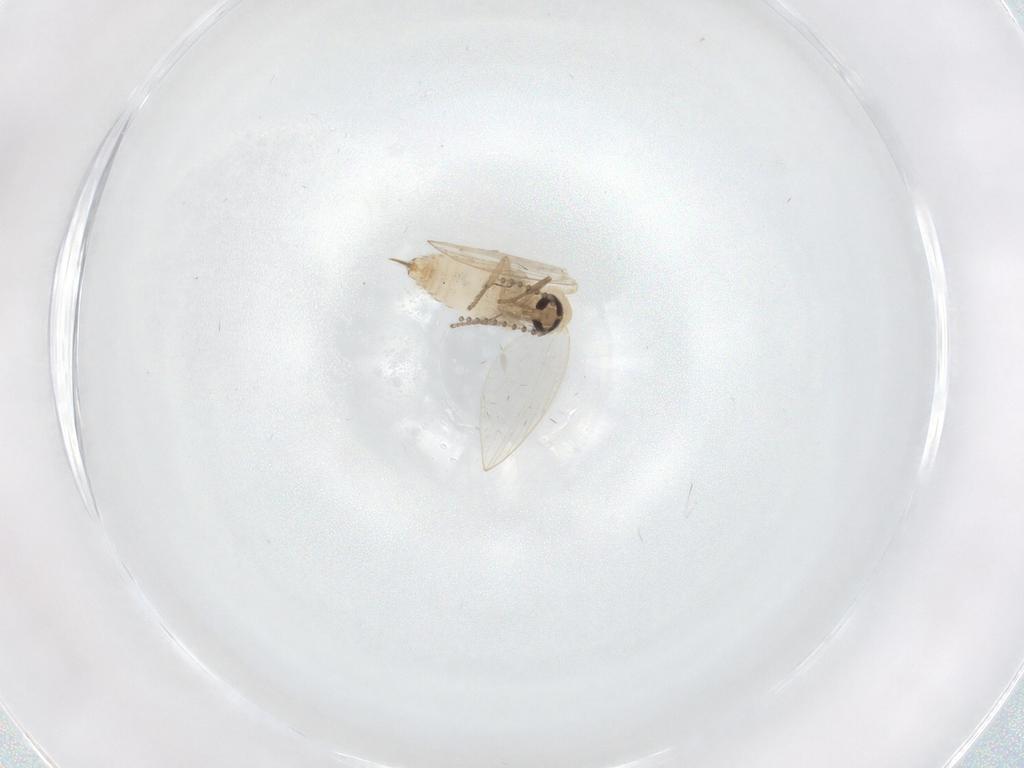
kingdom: Animalia
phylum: Arthropoda
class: Insecta
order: Diptera
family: Psychodidae
